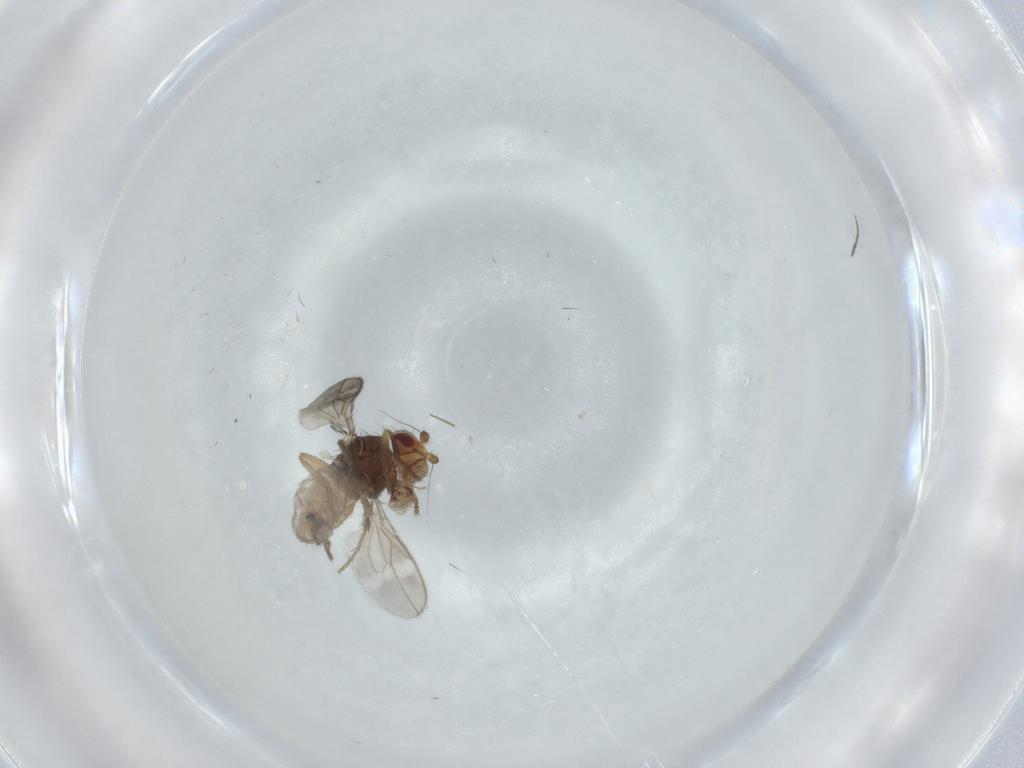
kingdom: Animalia
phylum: Arthropoda
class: Insecta
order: Diptera
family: Sphaeroceridae
